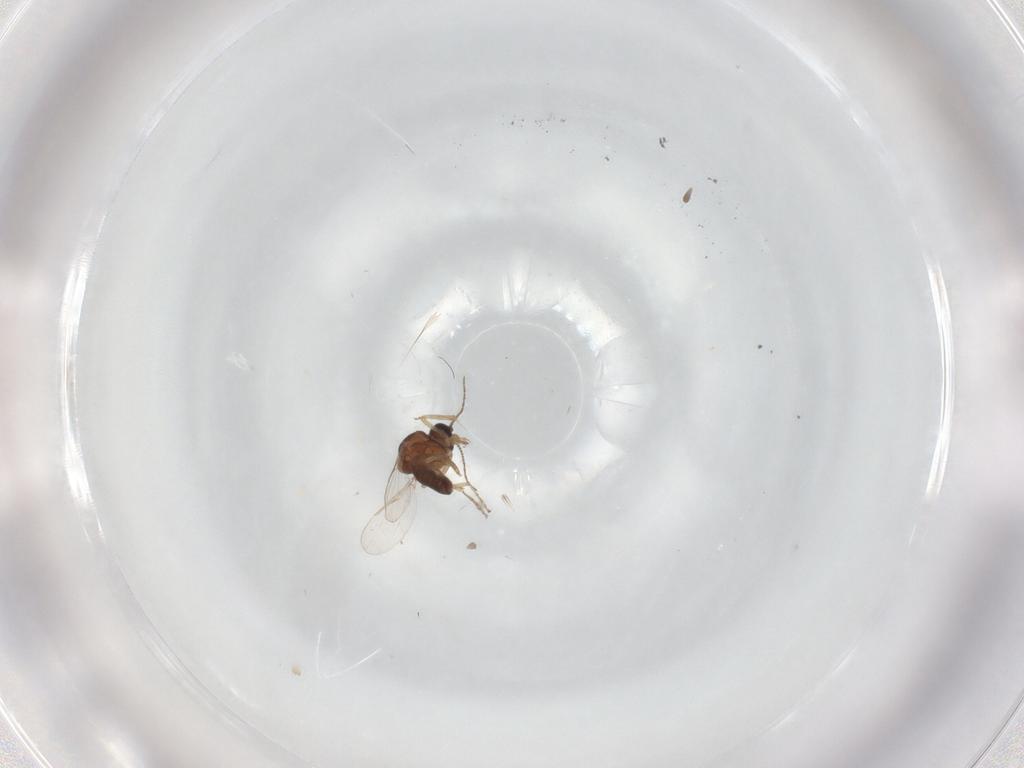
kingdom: Animalia
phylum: Arthropoda
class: Insecta
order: Diptera
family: Ceratopogonidae
